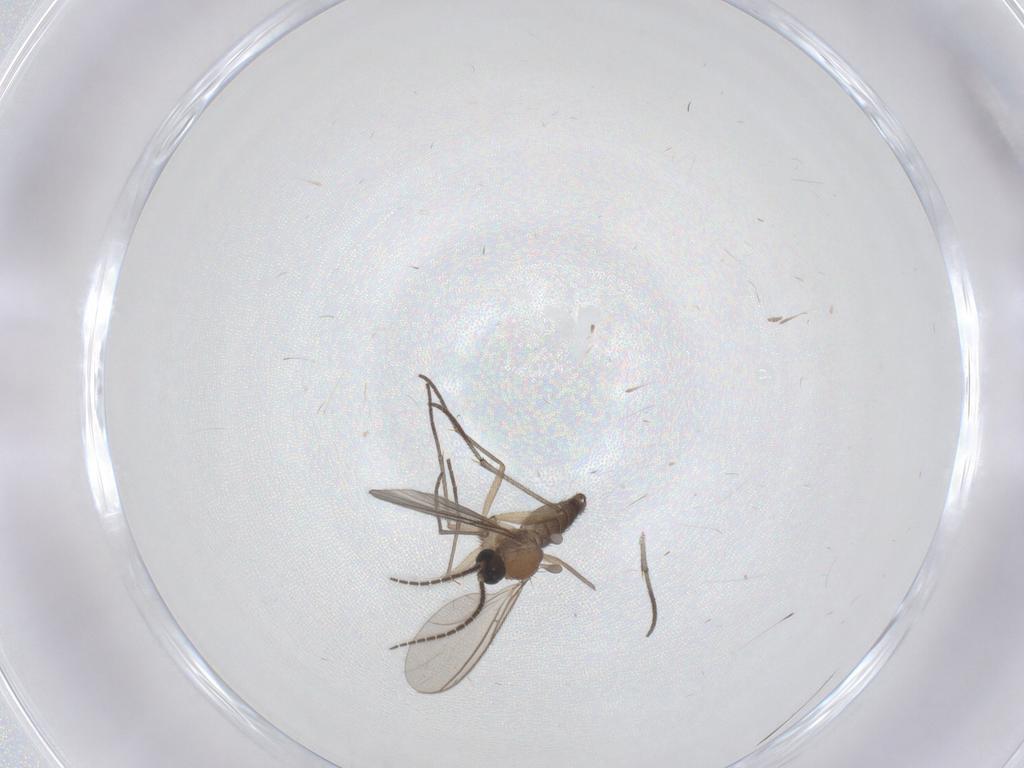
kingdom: Animalia
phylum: Arthropoda
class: Insecta
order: Diptera
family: Sciaridae
